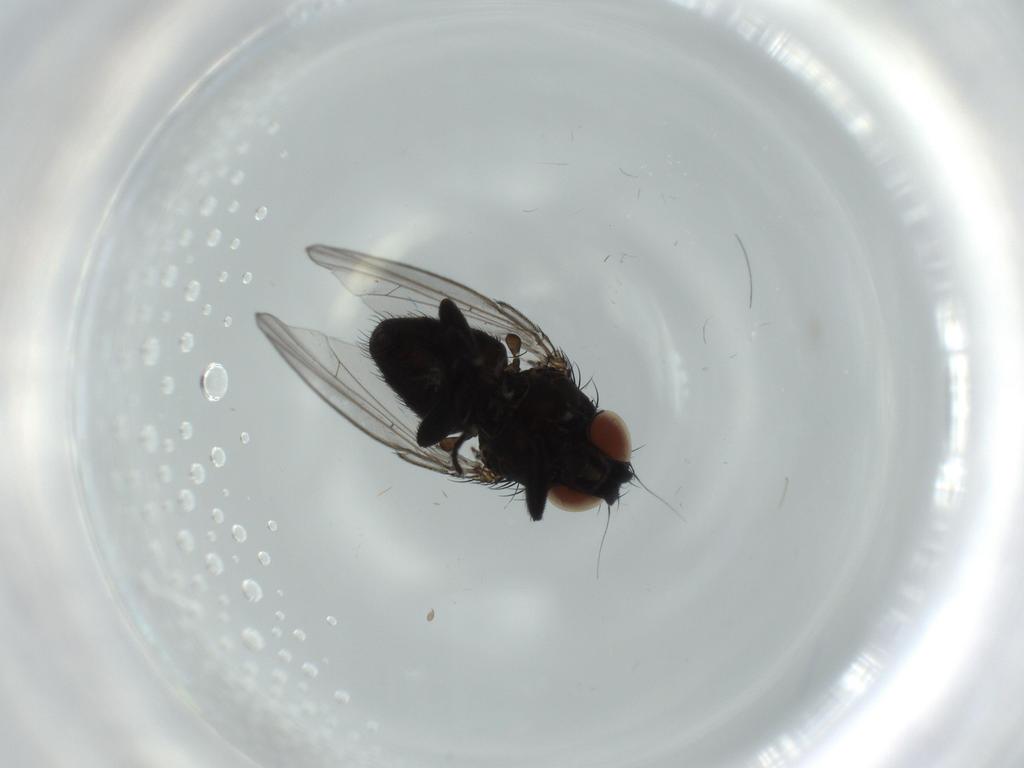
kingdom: Animalia
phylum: Arthropoda
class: Insecta
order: Diptera
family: Milichiidae
